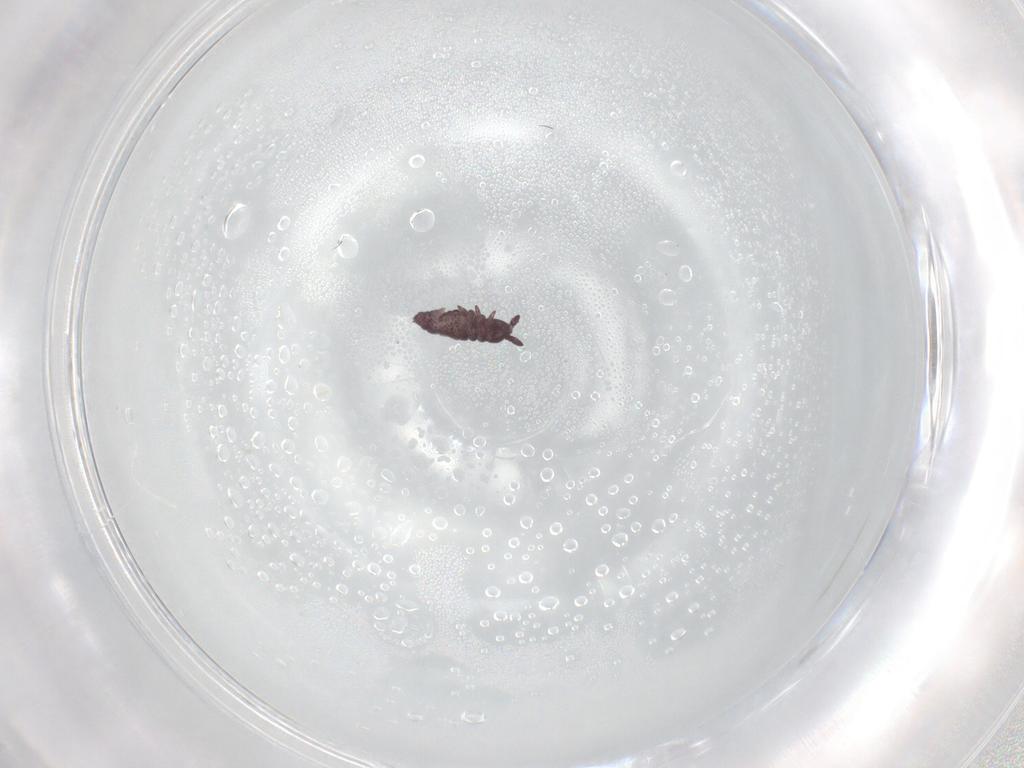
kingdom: Animalia
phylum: Arthropoda
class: Collembola
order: Poduromorpha
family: Hypogastruridae
